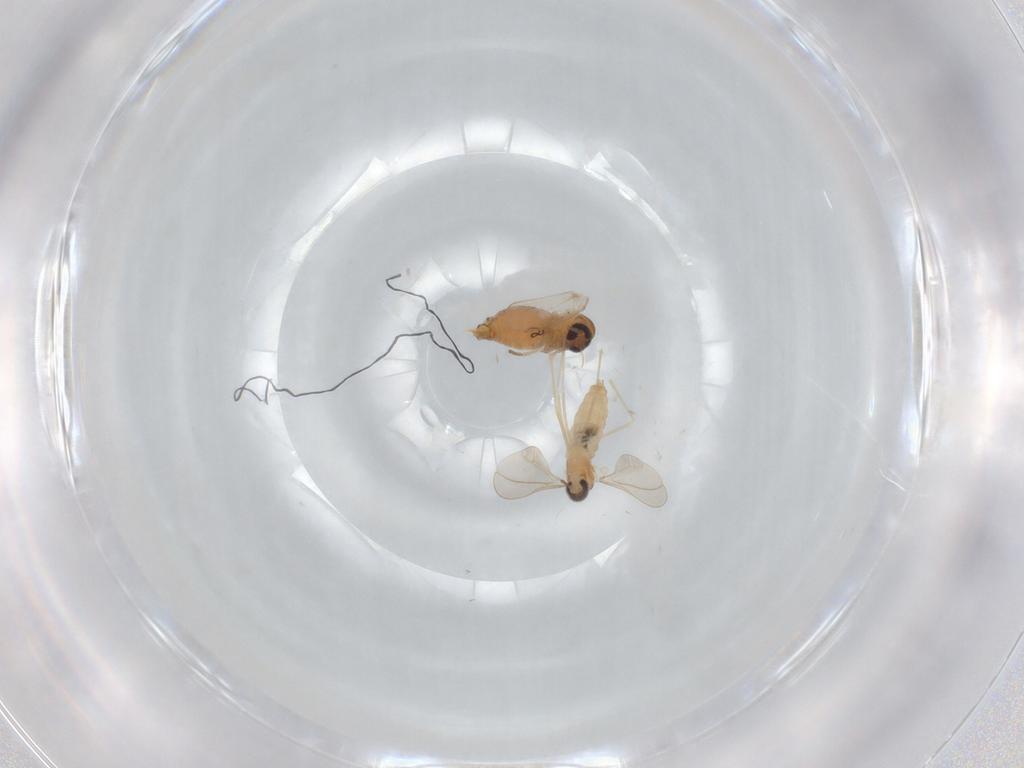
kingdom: Animalia
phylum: Arthropoda
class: Insecta
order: Diptera
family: Cecidomyiidae
